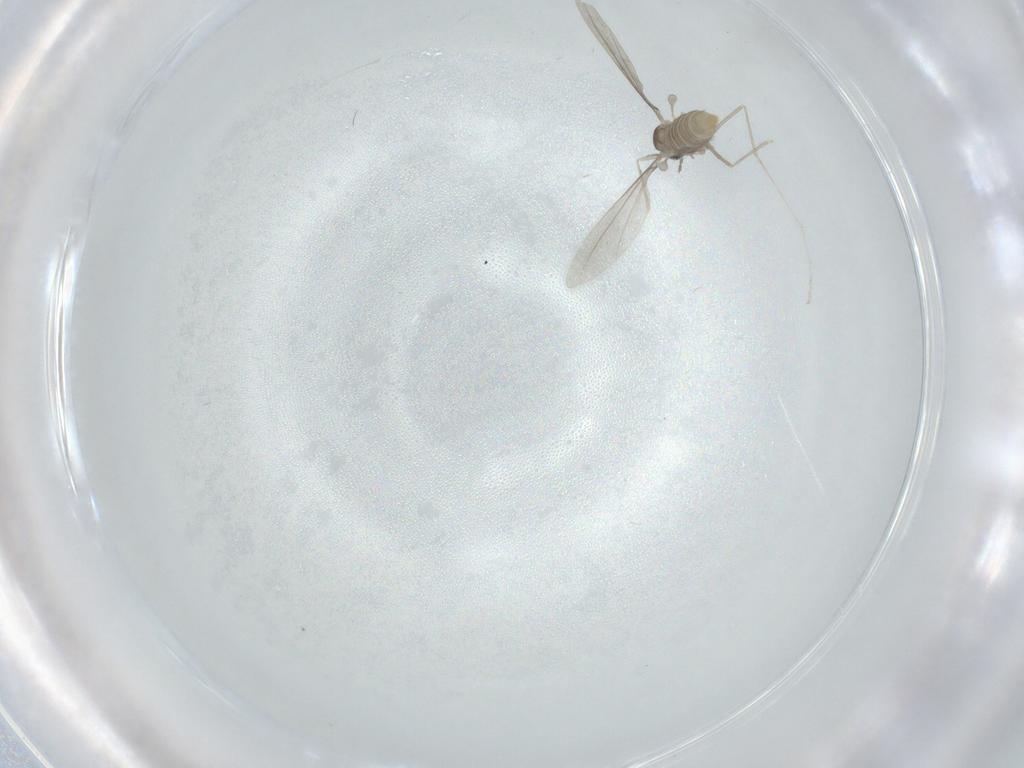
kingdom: Animalia
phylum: Arthropoda
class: Insecta
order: Diptera
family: Cecidomyiidae
